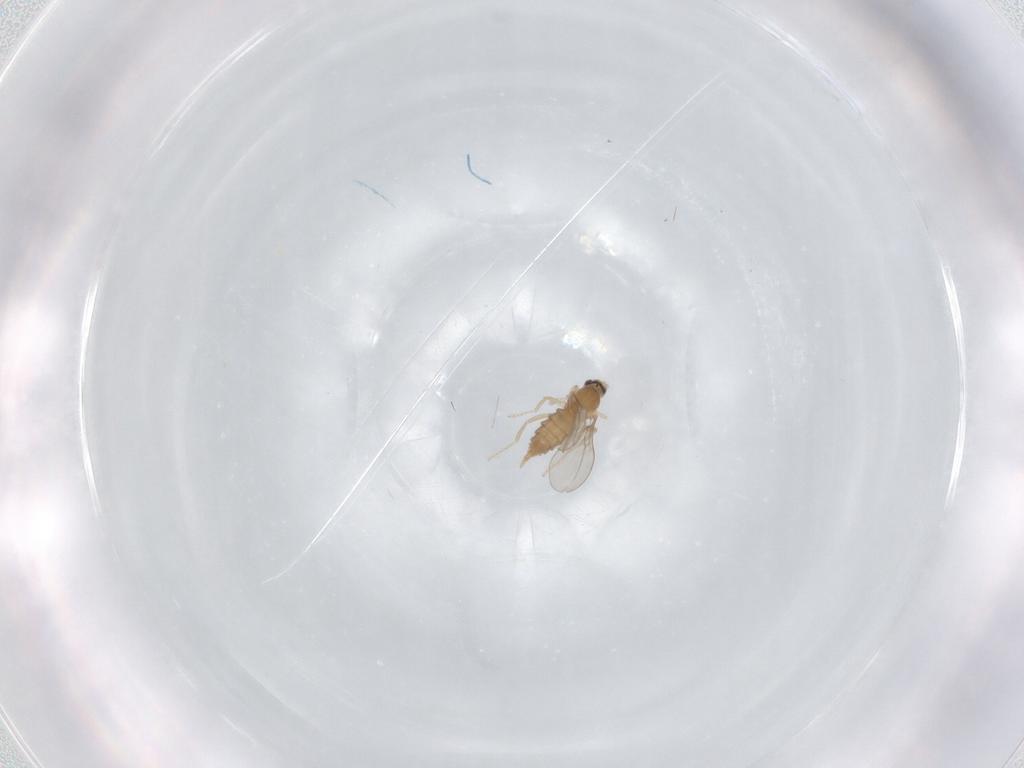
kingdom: Animalia
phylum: Arthropoda
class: Insecta
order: Diptera
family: Cecidomyiidae
